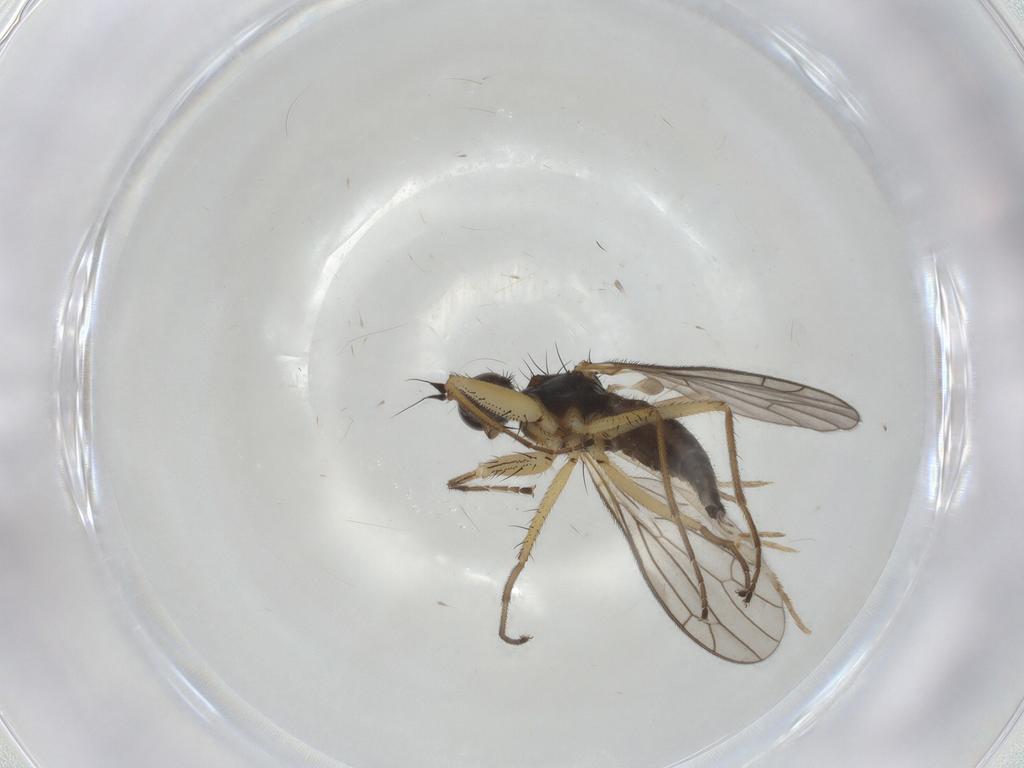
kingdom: Animalia
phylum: Arthropoda
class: Insecta
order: Diptera
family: Empididae
